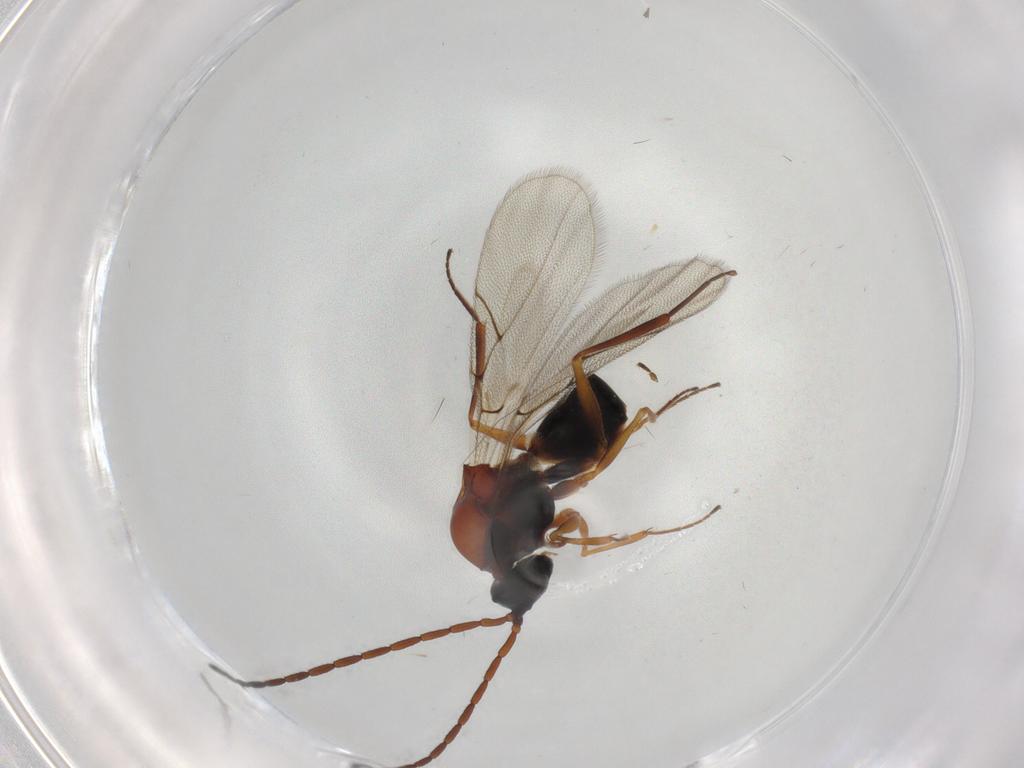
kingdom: Animalia
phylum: Arthropoda
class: Insecta
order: Hymenoptera
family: Figitidae
